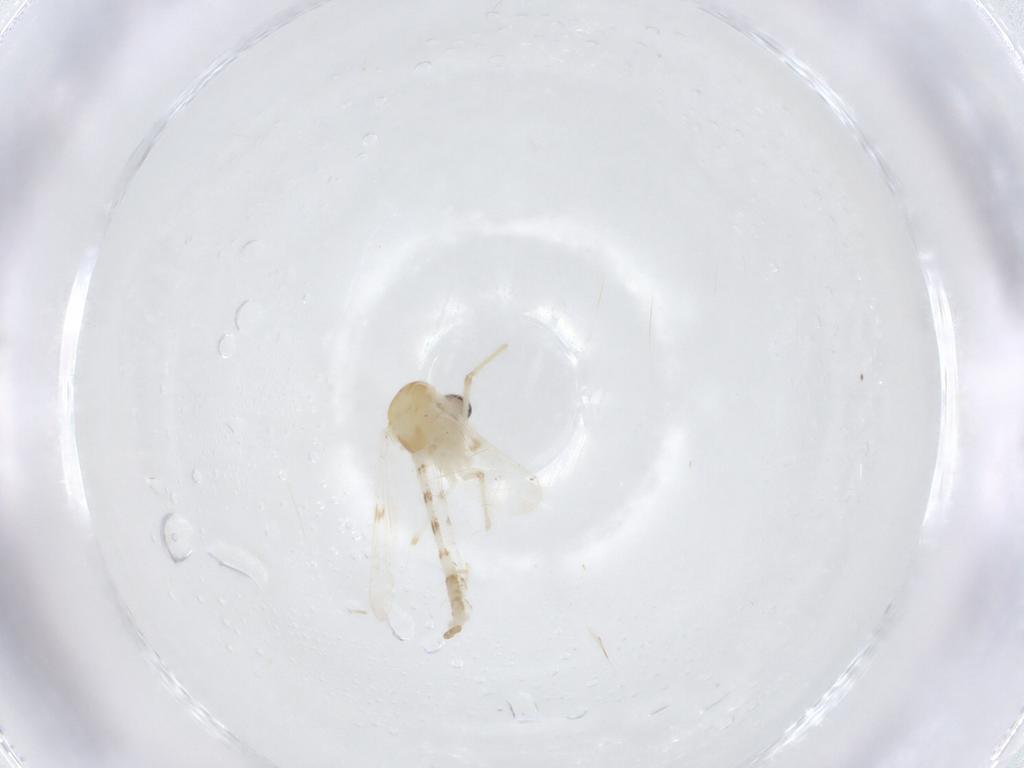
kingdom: Animalia
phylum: Arthropoda
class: Insecta
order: Diptera
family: Chironomidae
